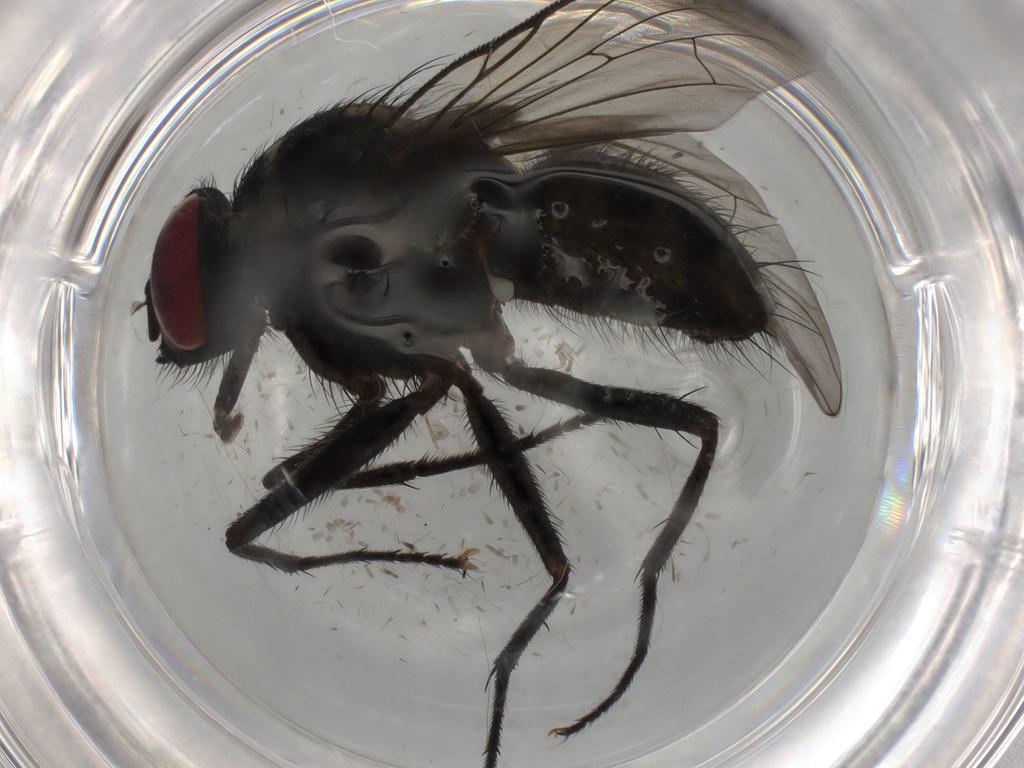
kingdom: Animalia
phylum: Arthropoda
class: Insecta
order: Diptera
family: Muscidae
